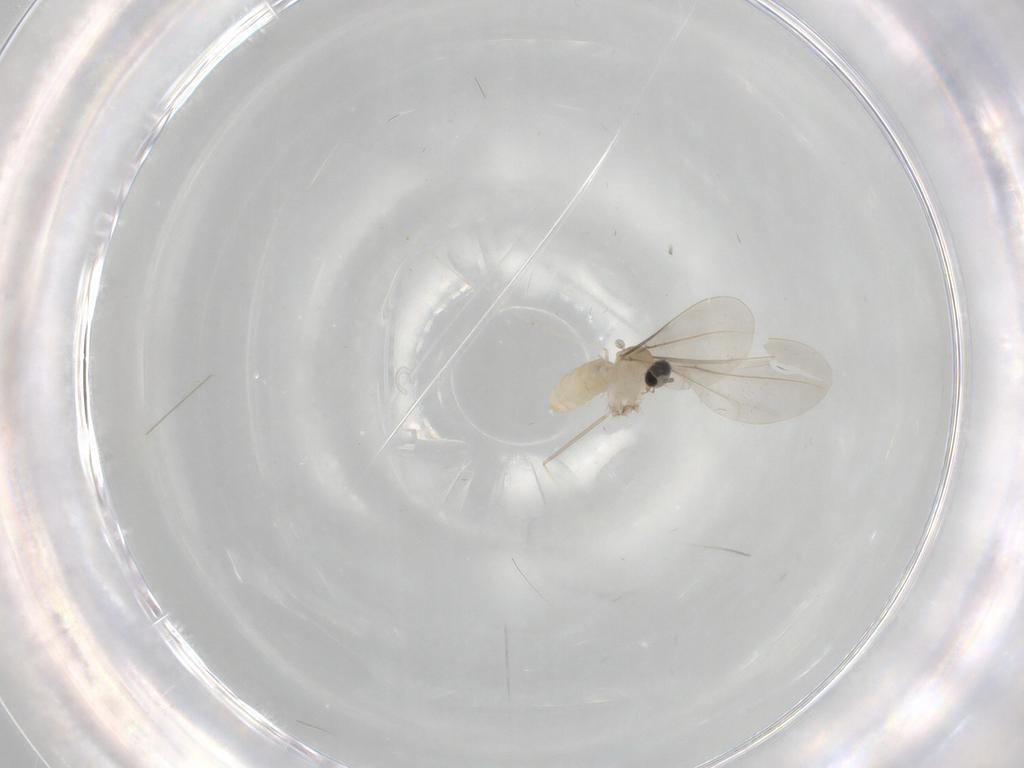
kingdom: Animalia
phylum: Arthropoda
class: Insecta
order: Diptera
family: Cecidomyiidae
